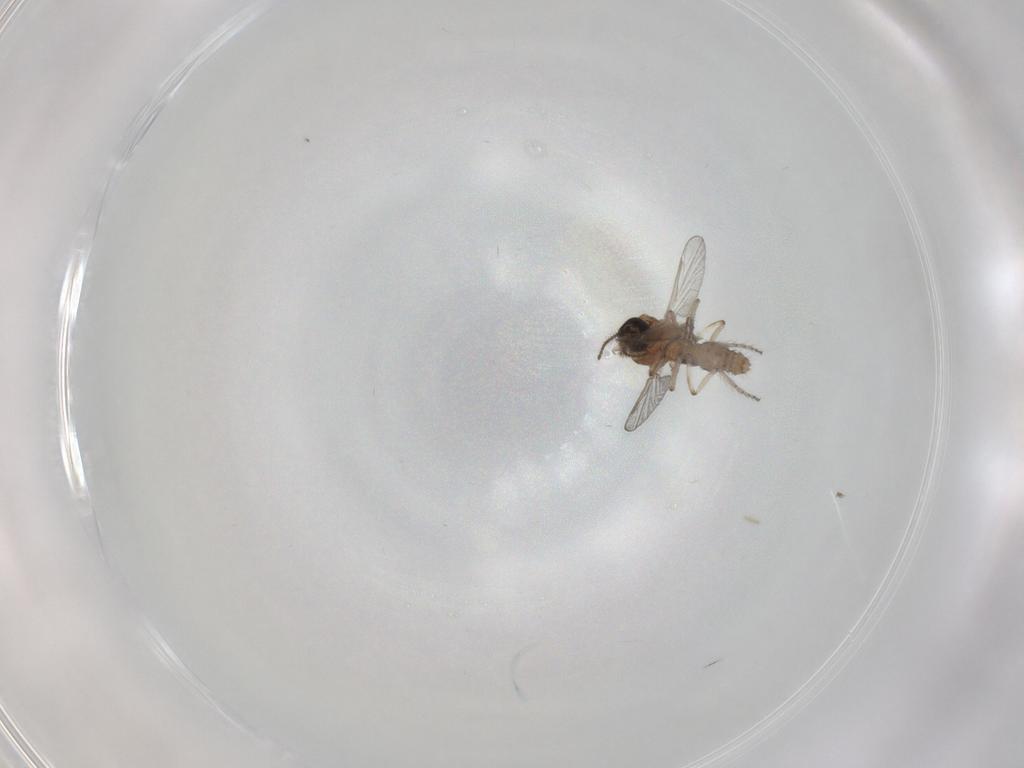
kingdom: Animalia
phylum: Arthropoda
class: Insecta
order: Diptera
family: Ceratopogonidae
